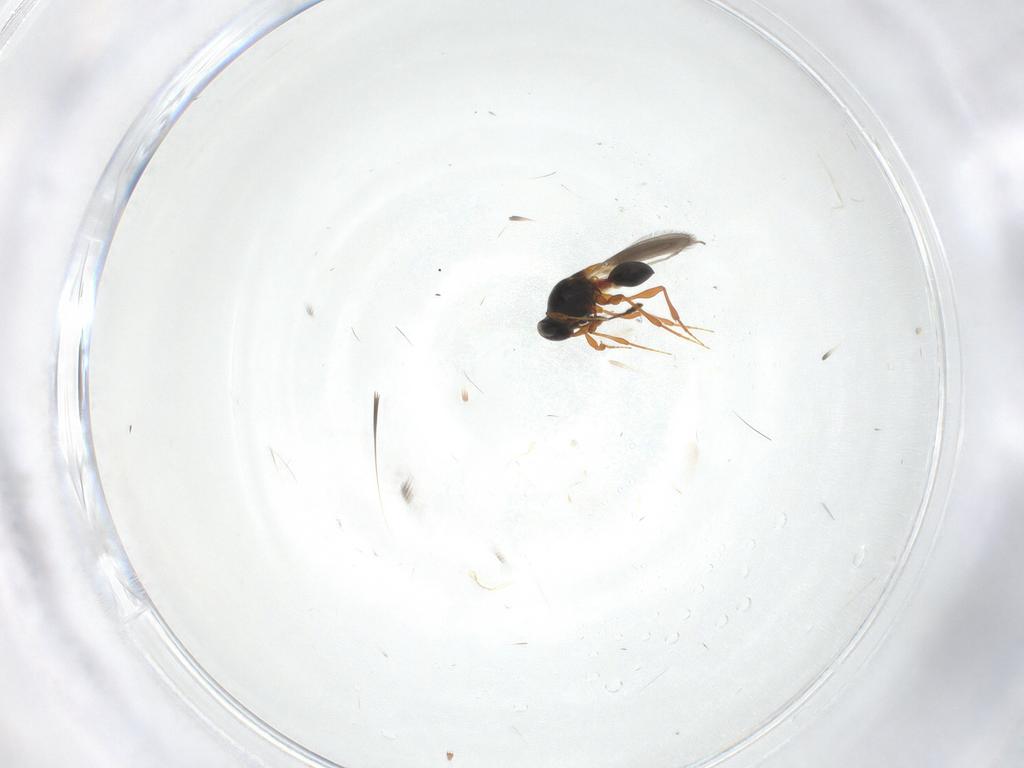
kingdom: Animalia
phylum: Arthropoda
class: Insecta
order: Hymenoptera
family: Platygastridae
